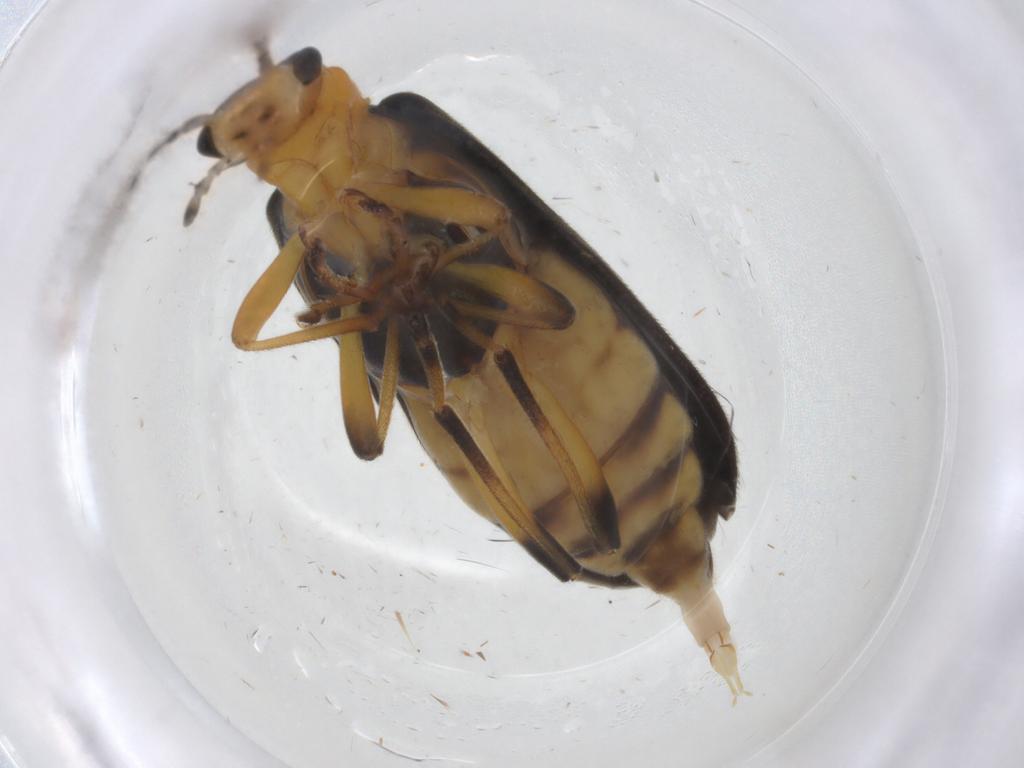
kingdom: Animalia
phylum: Arthropoda
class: Insecta
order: Coleoptera
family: Oedemeridae
